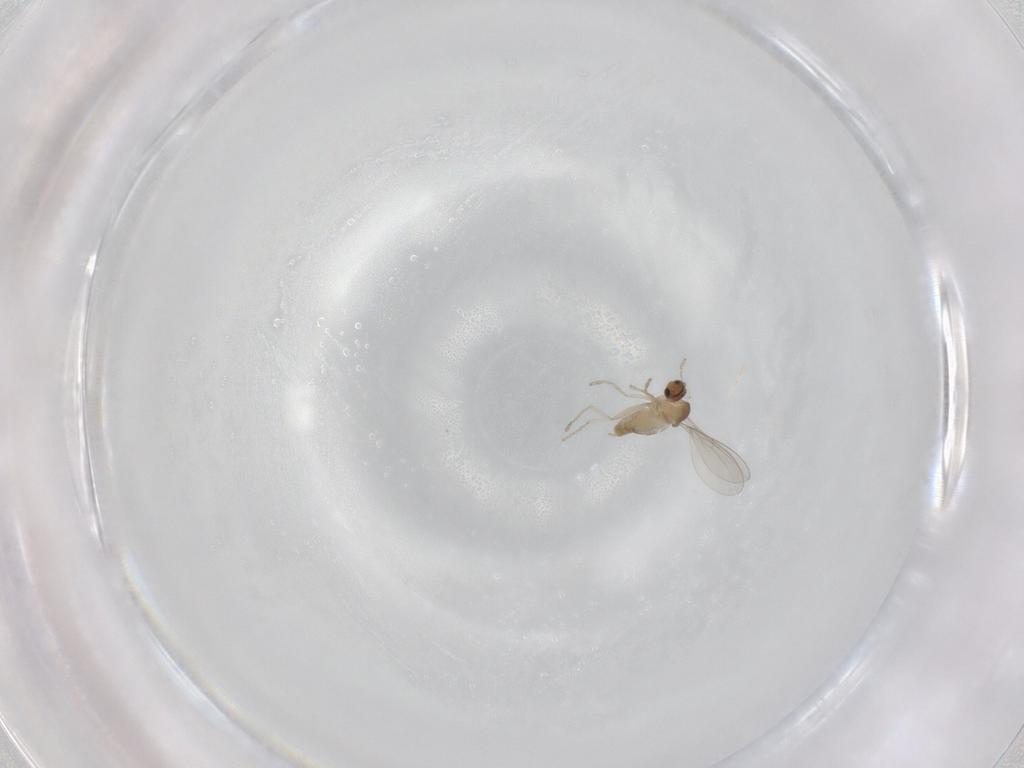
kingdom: Animalia
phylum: Arthropoda
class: Insecta
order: Diptera
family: Cecidomyiidae
